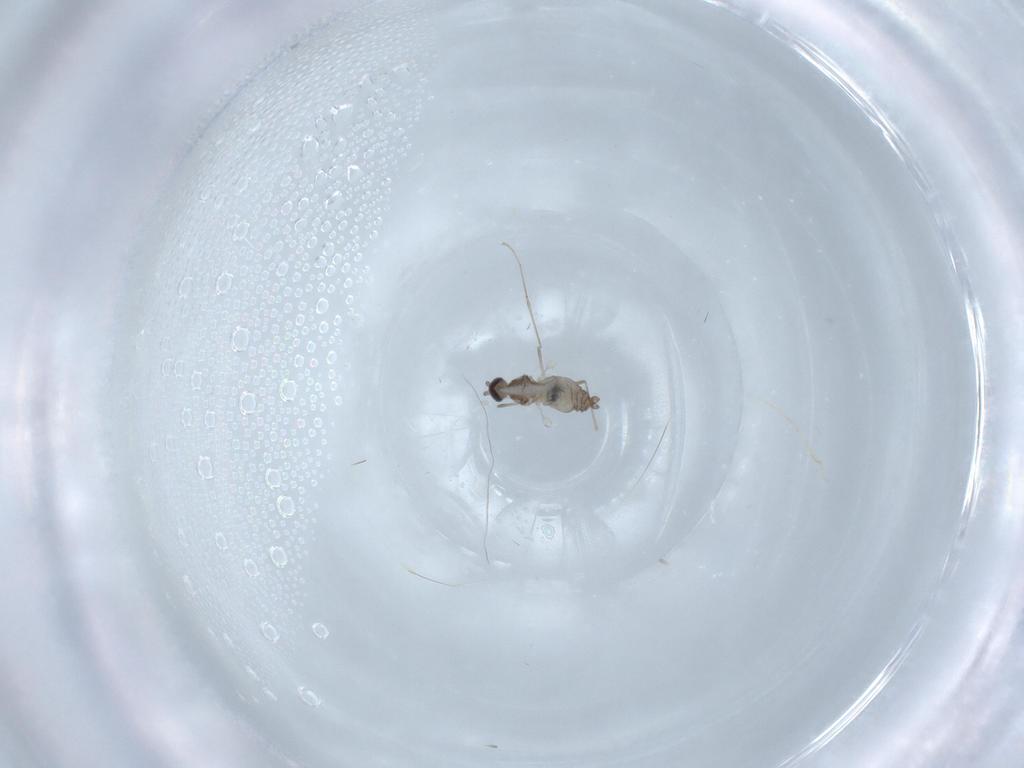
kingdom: Animalia
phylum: Arthropoda
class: Insecta
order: Diptera
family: Cecidomyiidae
